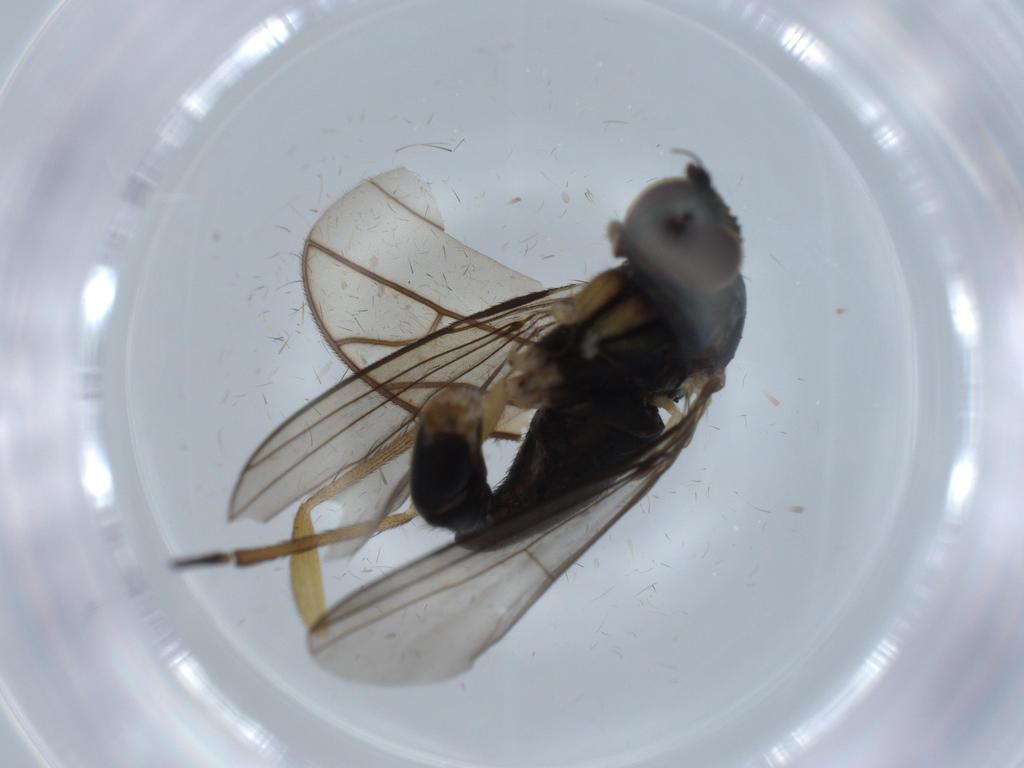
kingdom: Animalia
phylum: Arthropoda
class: Insecta
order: Diptera
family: Dolichopodidae
